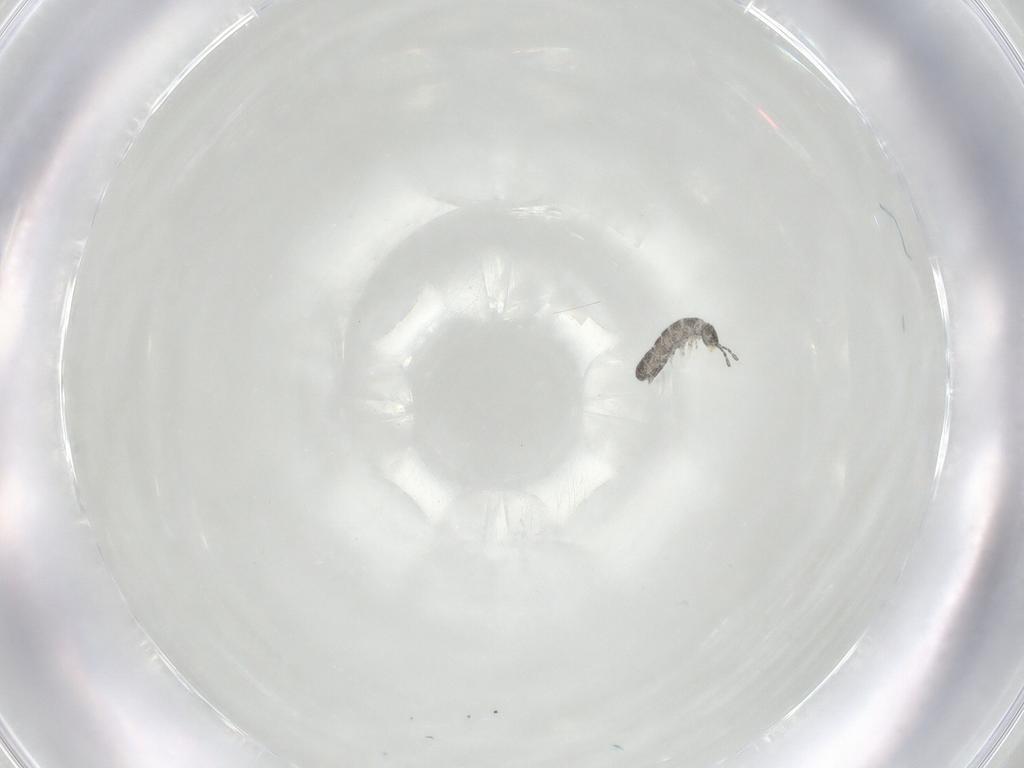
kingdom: Animalia
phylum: Arthropoda
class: Collembola
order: Entomobryomorpha
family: Isotomidae
